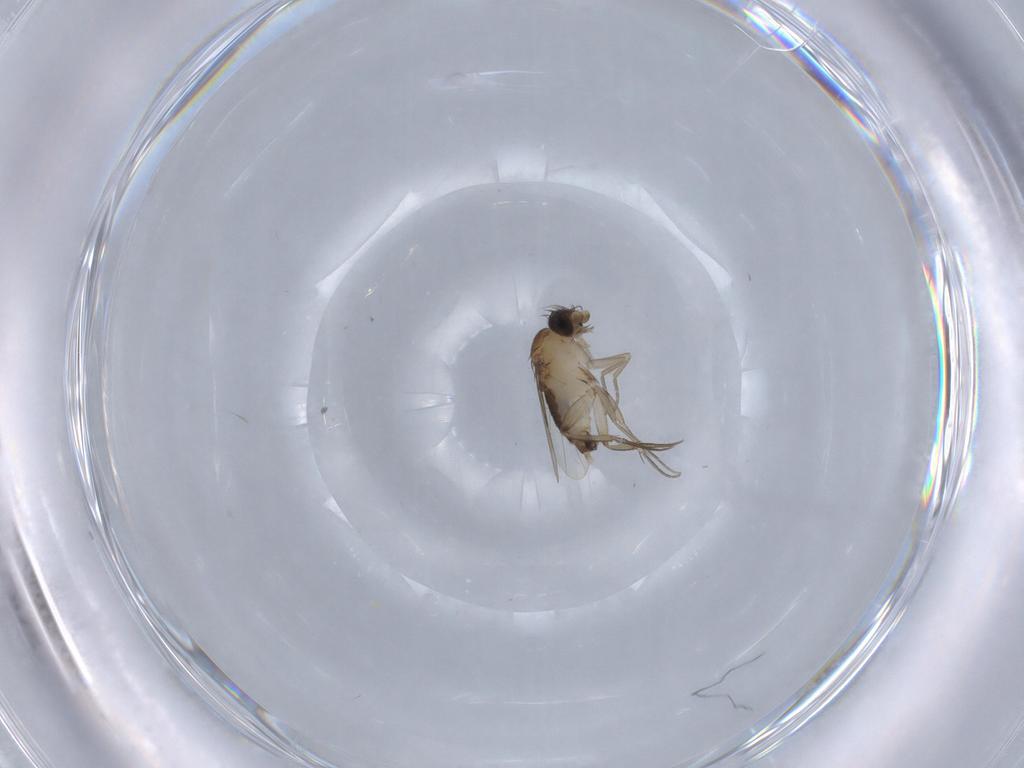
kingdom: Animalia
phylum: Arthropoda
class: Insecta
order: Diptera
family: Phoridae
